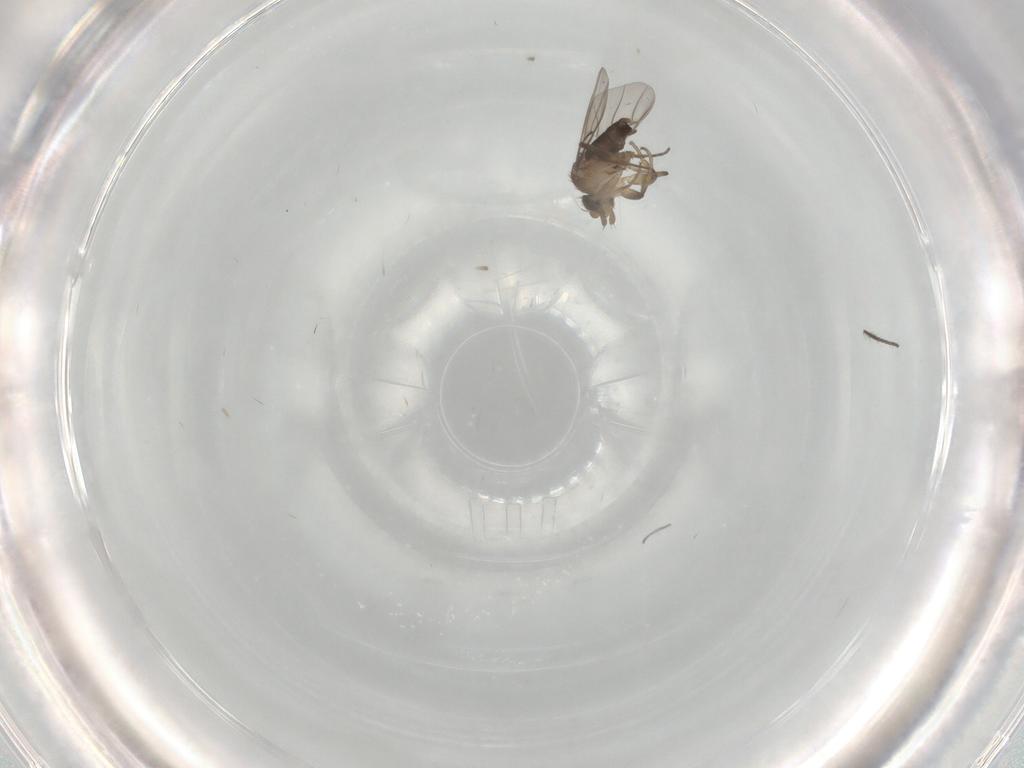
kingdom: Animalia
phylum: Arthropoda
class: Insecta
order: Diptera
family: Phoridae
